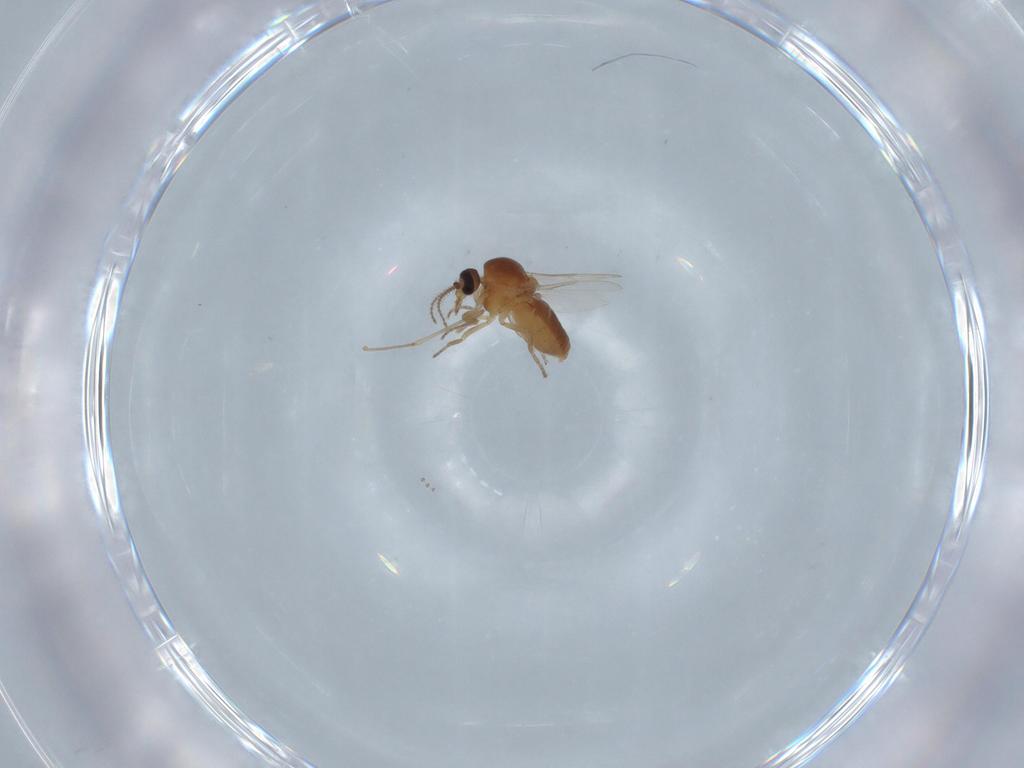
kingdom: Animalia
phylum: Arthropoda
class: Insecta
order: Diptera
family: Ceratopogonidae
